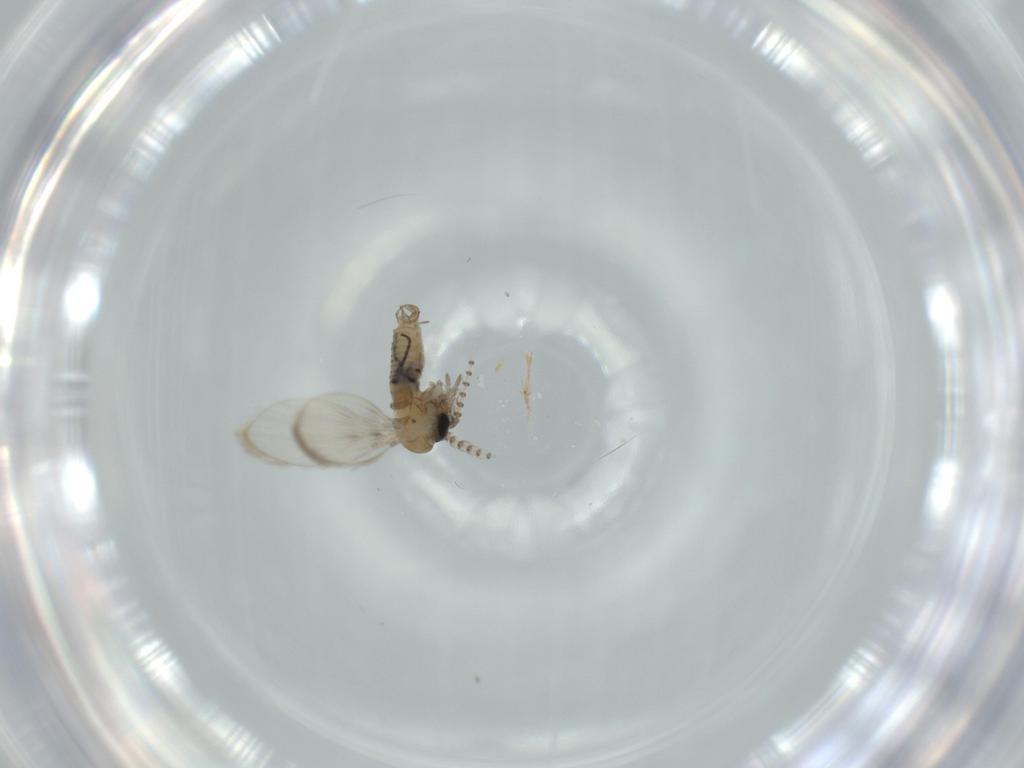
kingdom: Animalia
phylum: Arthropoda
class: Insecta
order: Diptera
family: Psychodidae
